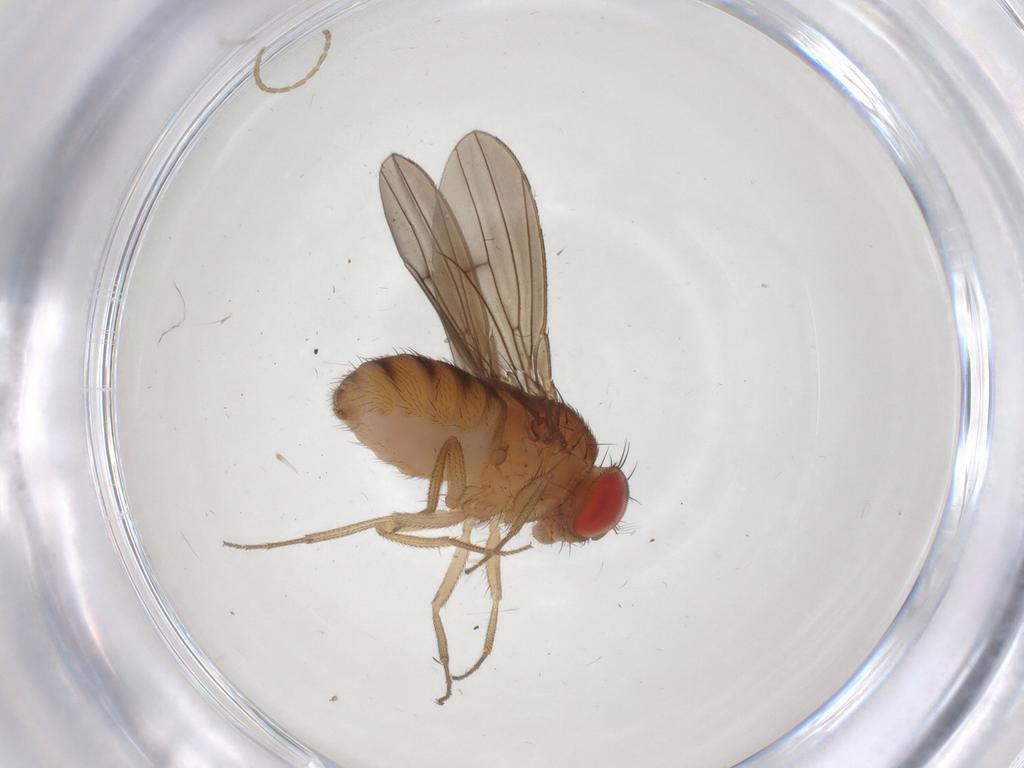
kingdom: Animalia
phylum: Arthropoda
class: Insecta
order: Diptera
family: Drosophilidae
